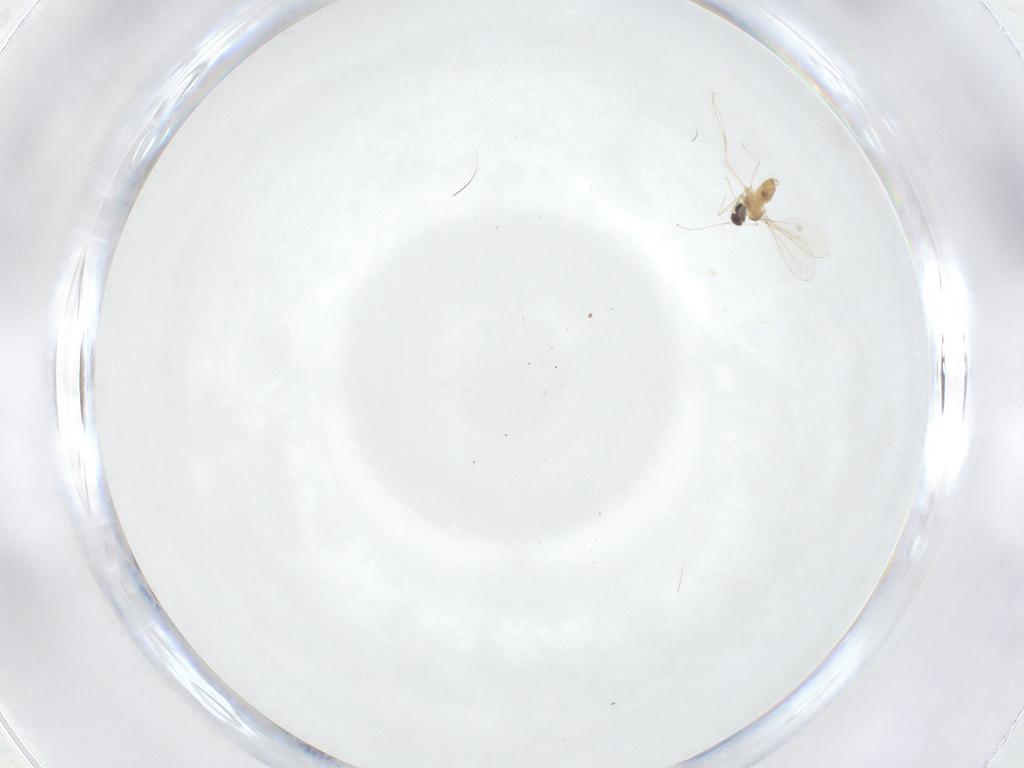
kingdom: Animalia
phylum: Arthropoda
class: Insecta
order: Diptera
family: Cecidomyiidae
